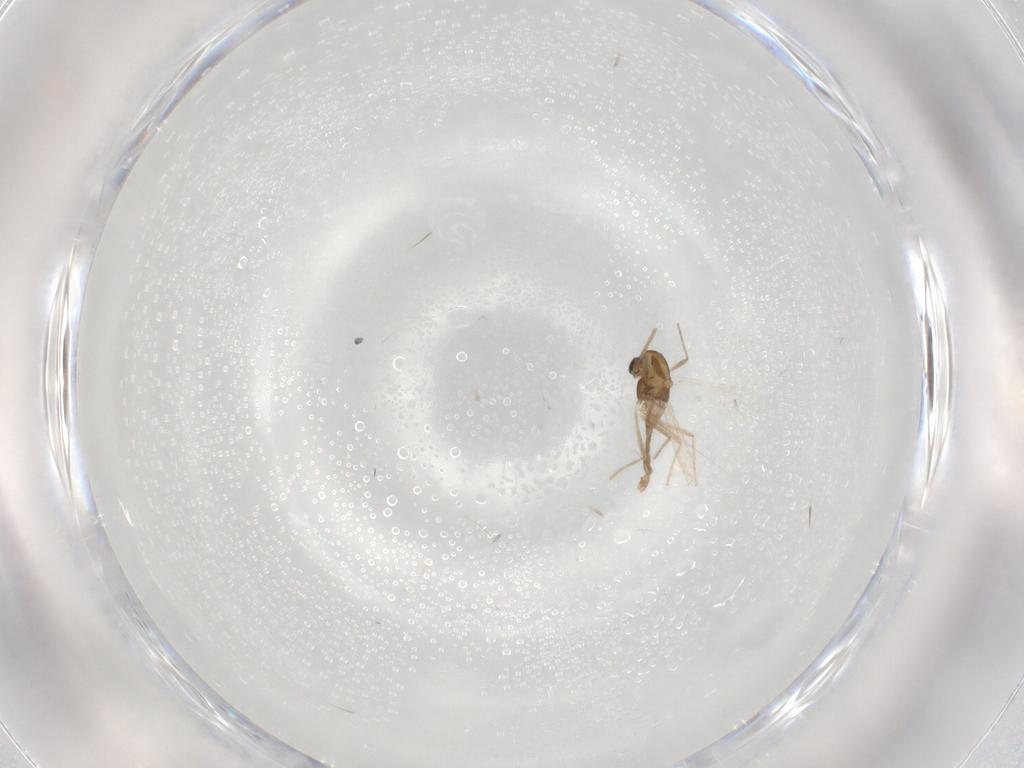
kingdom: Animalia
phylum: Arthropoda
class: Insecta
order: Diptera
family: Chironomidae
